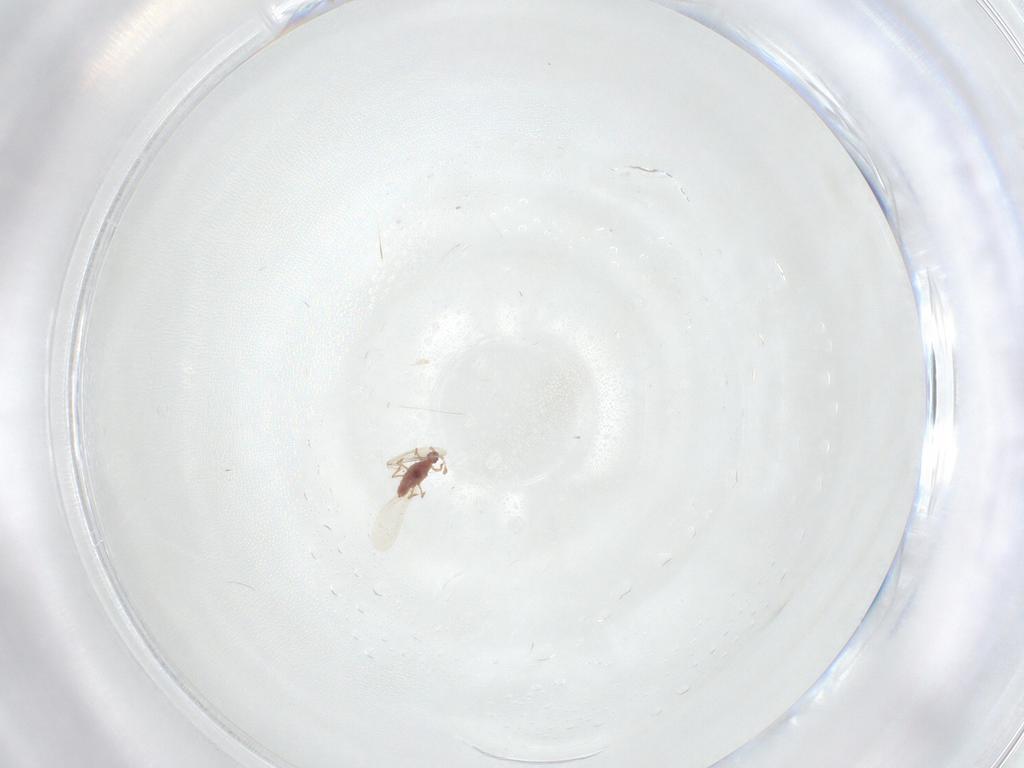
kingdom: Animalia
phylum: Arthropoda
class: Insecta
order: Hemiptera
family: Pseudococcidae
